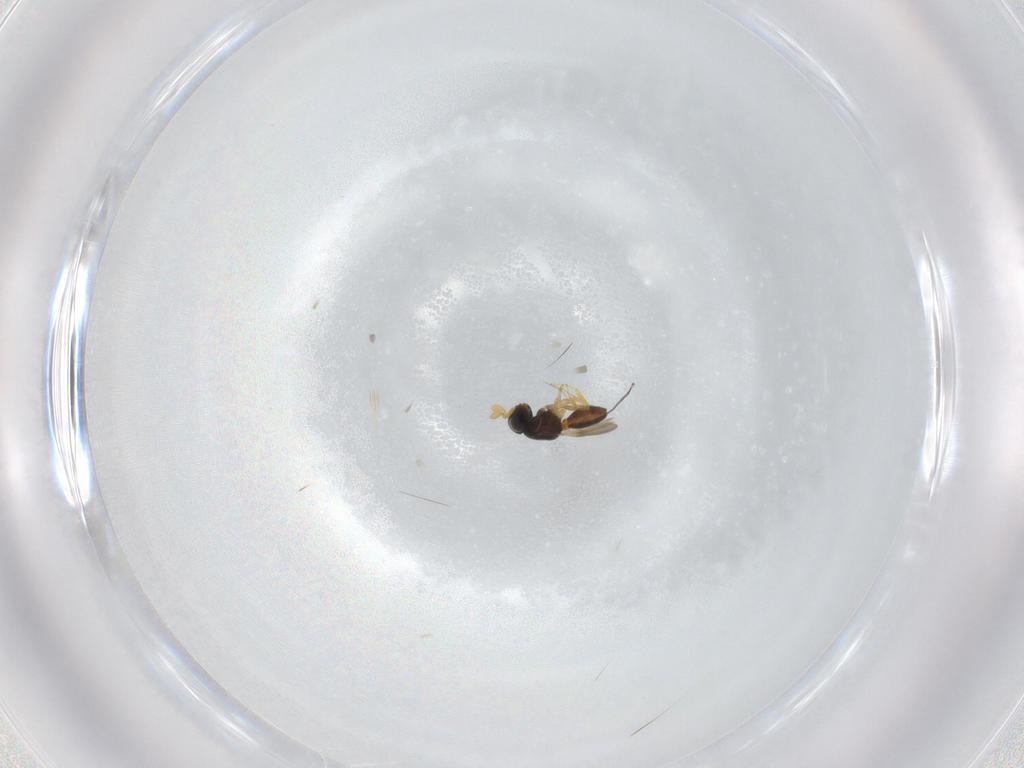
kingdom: Animalia
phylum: Arthropoda
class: Insecta
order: Hymenoptera
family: Scelionidae
